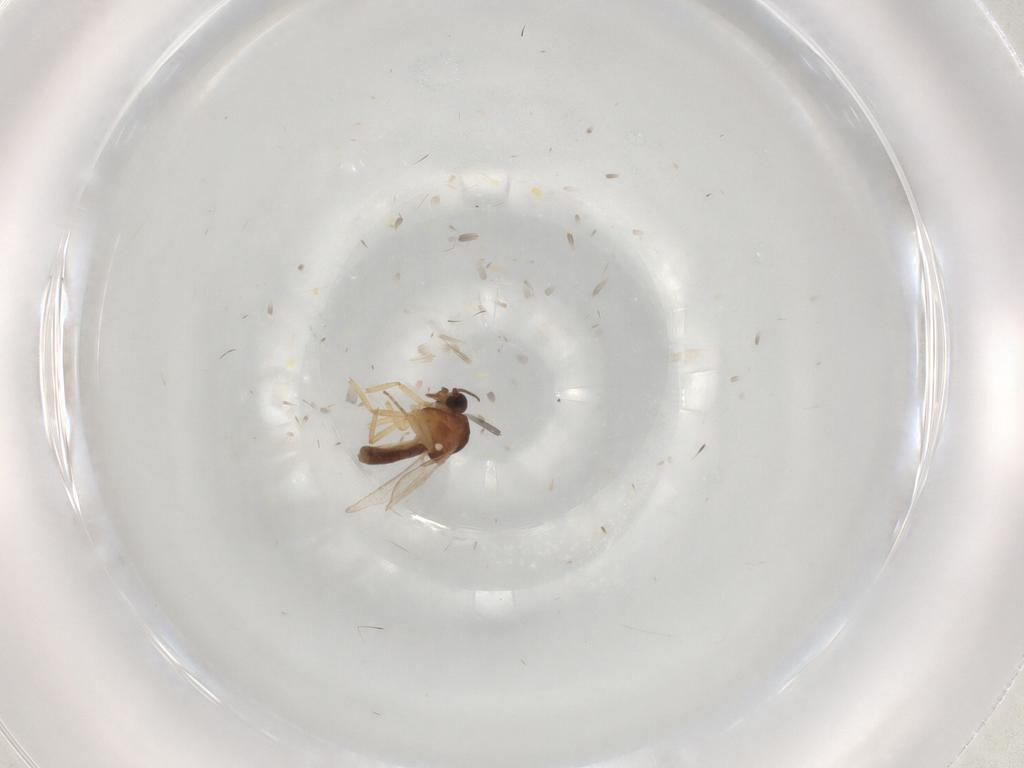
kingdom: Animalia
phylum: Arthropoda
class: Insecta
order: Diptera
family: Ceratopogonidae
